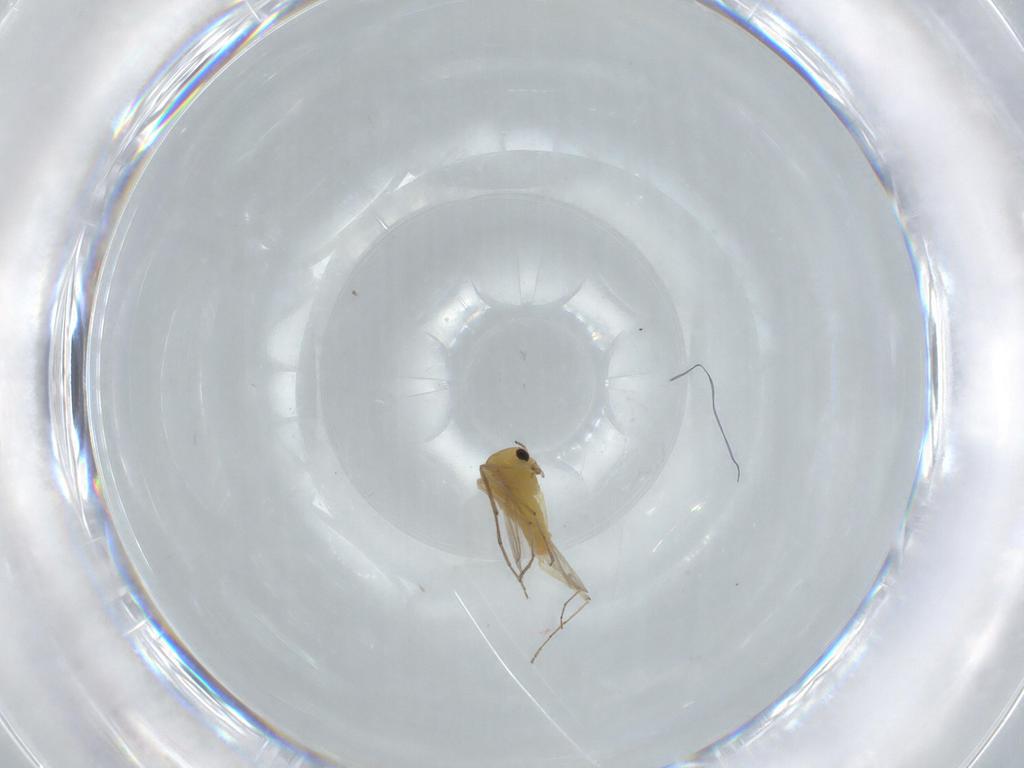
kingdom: Animalia
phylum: Arthropoda
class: Insecta
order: Diptera
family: Chironomidae
